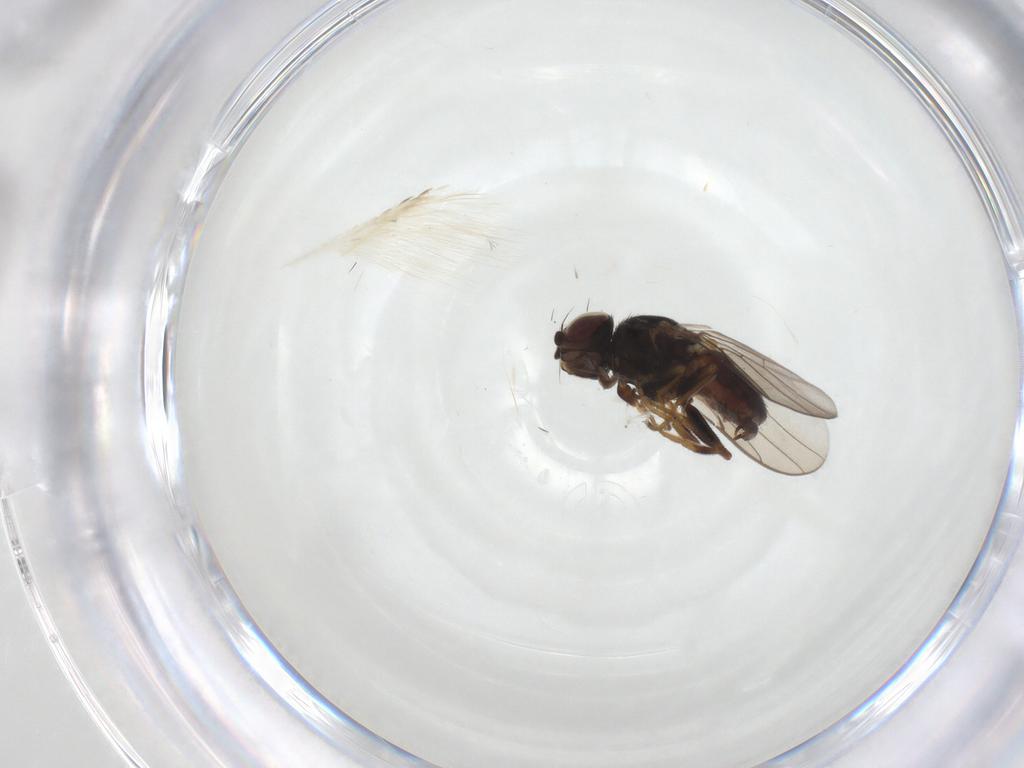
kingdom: Animalia
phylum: Arthropoda
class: Insecta
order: Diptera
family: Chloropidae
